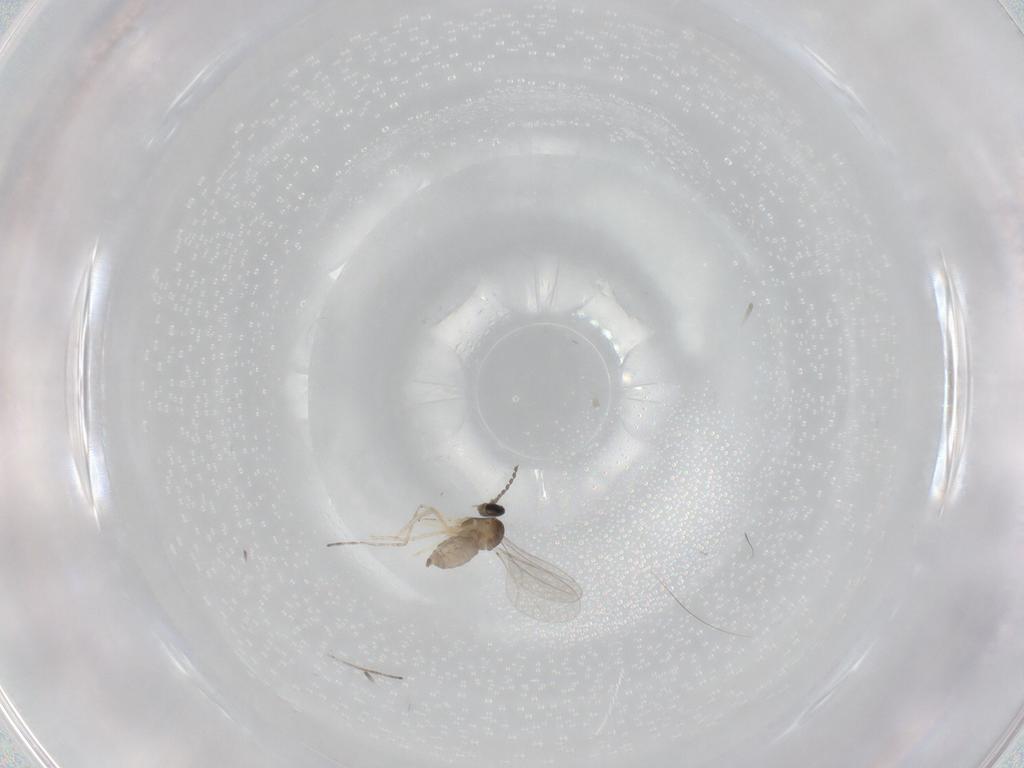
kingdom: Animalia
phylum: Arthropoda
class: Insecta
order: Diptera
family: Cecidomyiidae
